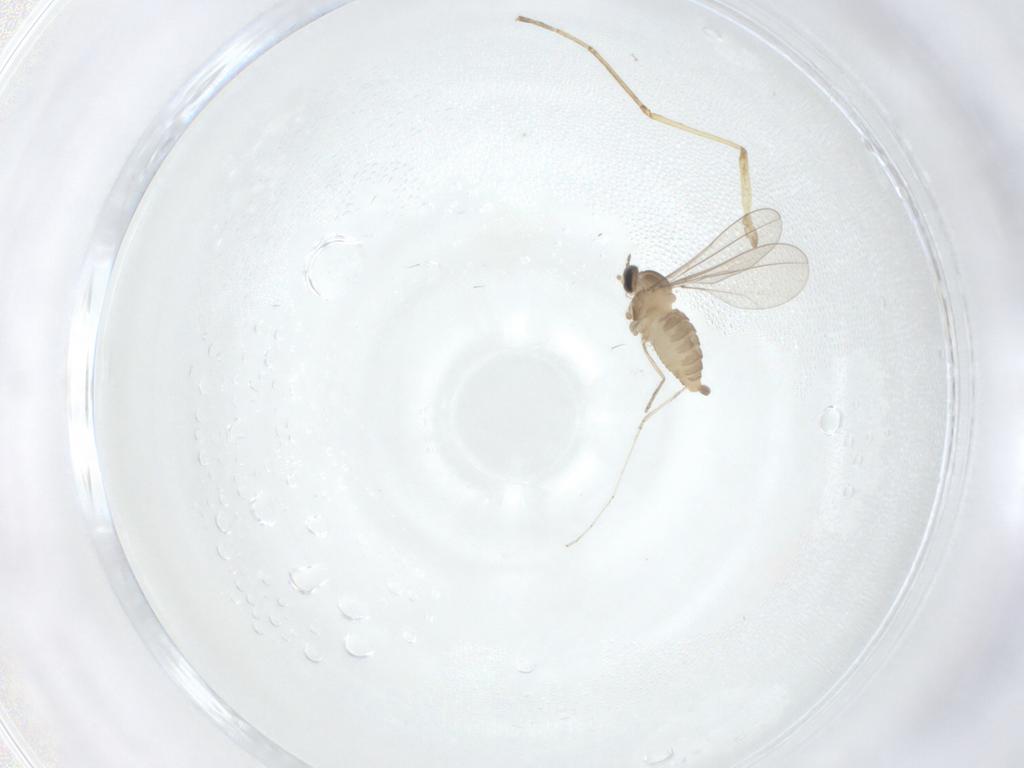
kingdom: Animalia
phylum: Arthropoda
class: Insecta
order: Diptera
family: Cecidomyiidae
